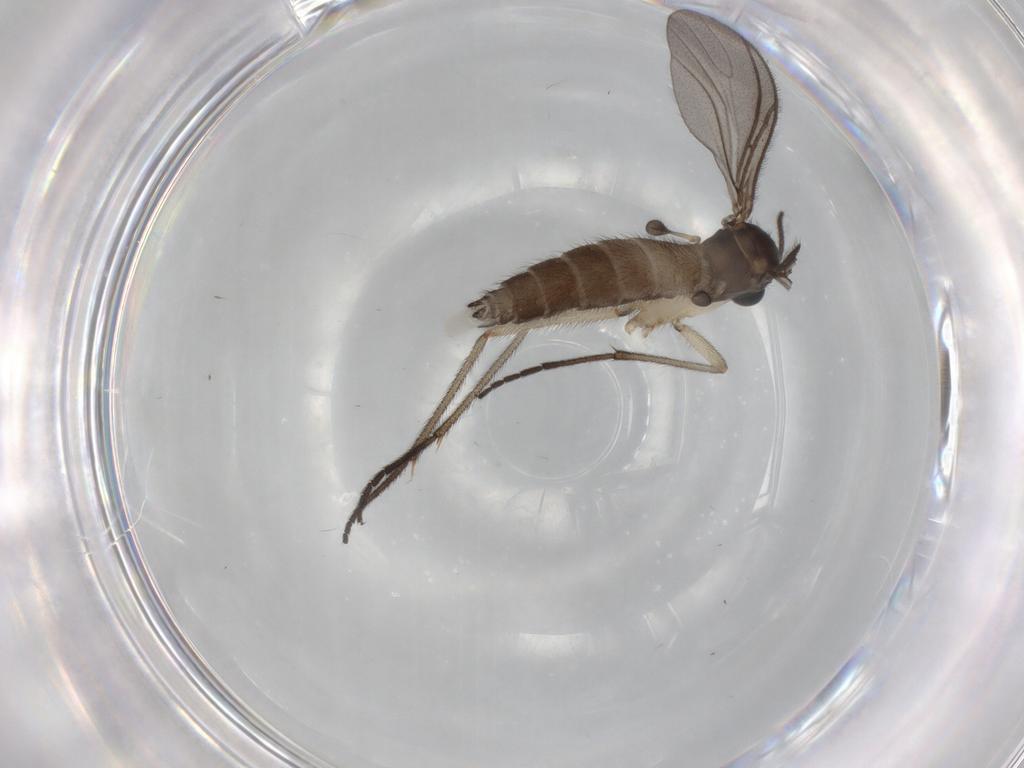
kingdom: Animalia
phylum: Arthropoda
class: Insecta
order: Diptera
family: Sciaridae
